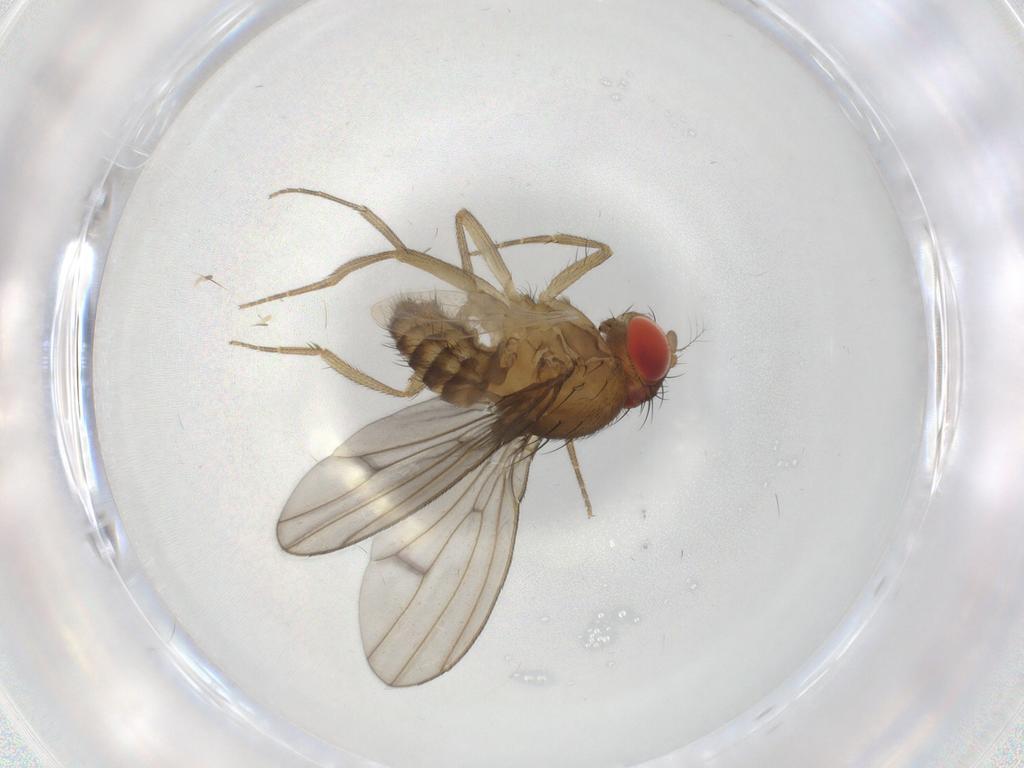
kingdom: Animalia
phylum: Arthropoda
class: Insecta
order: Diptera
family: Drosophilidae
